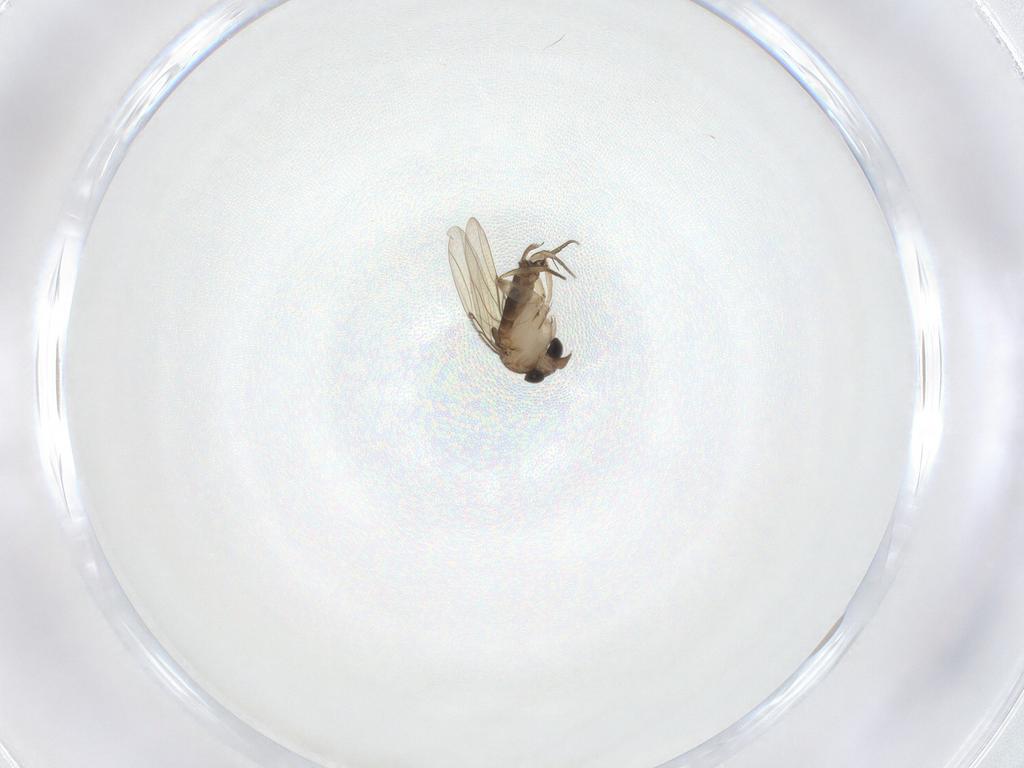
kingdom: Animalia
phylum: Arthropoda
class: Insecta
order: Diptera
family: Phoridae
